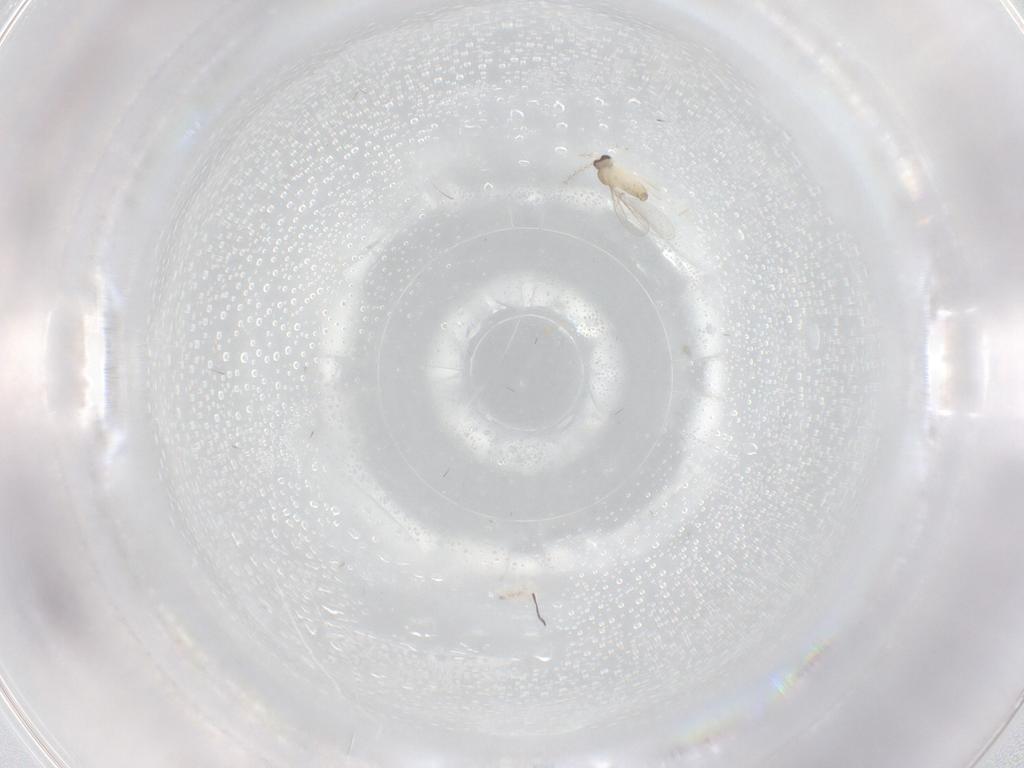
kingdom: Animalia
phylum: Arthropoda
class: Insecta
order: Diptera
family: Cecidomyiidae
